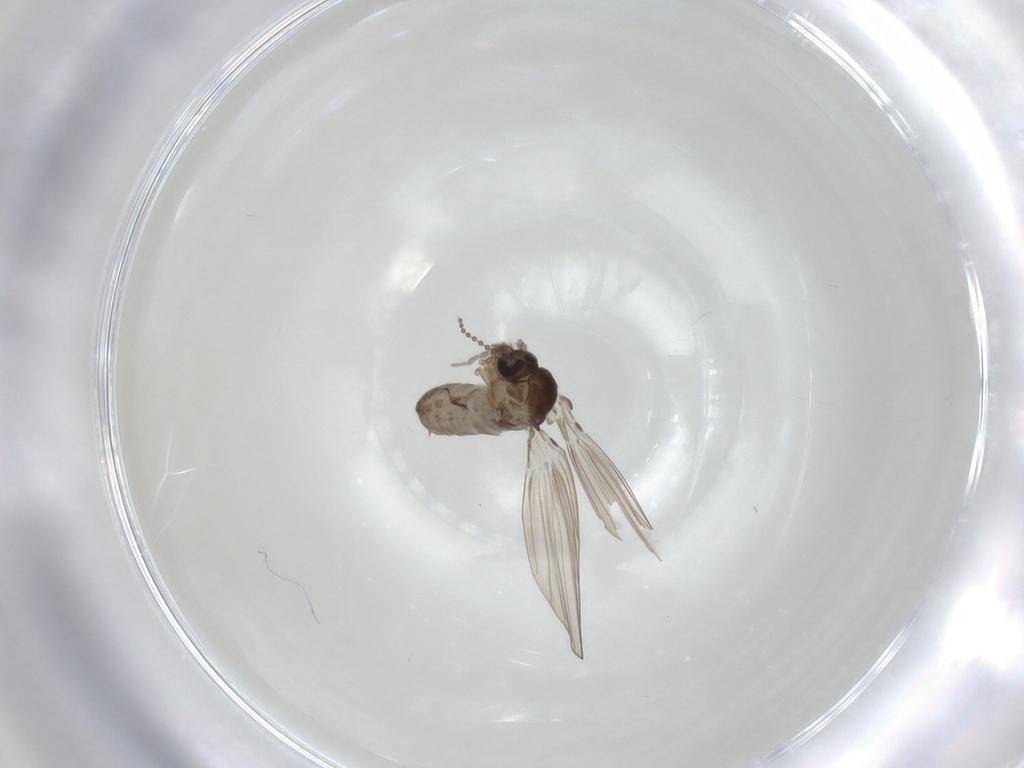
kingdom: Animalia
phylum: Arthropoda
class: Insecta
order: Diptera
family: Psychodidae
